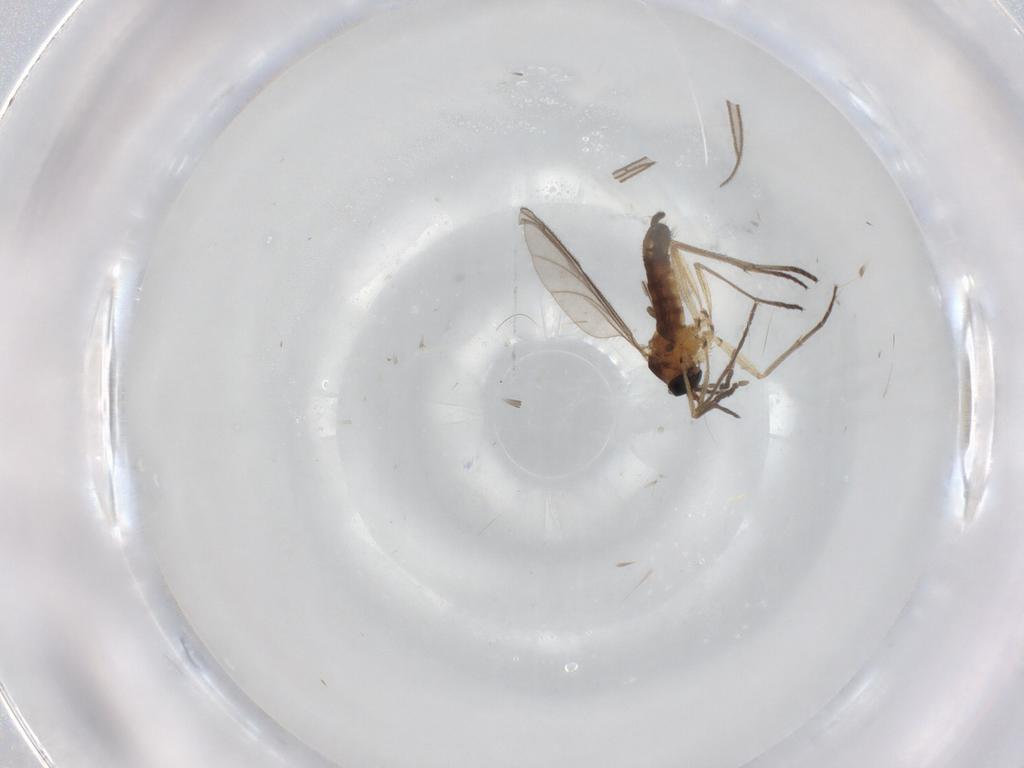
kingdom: Animalia
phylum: Arthropoda
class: Insecta
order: Diptera
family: Sciaridae
